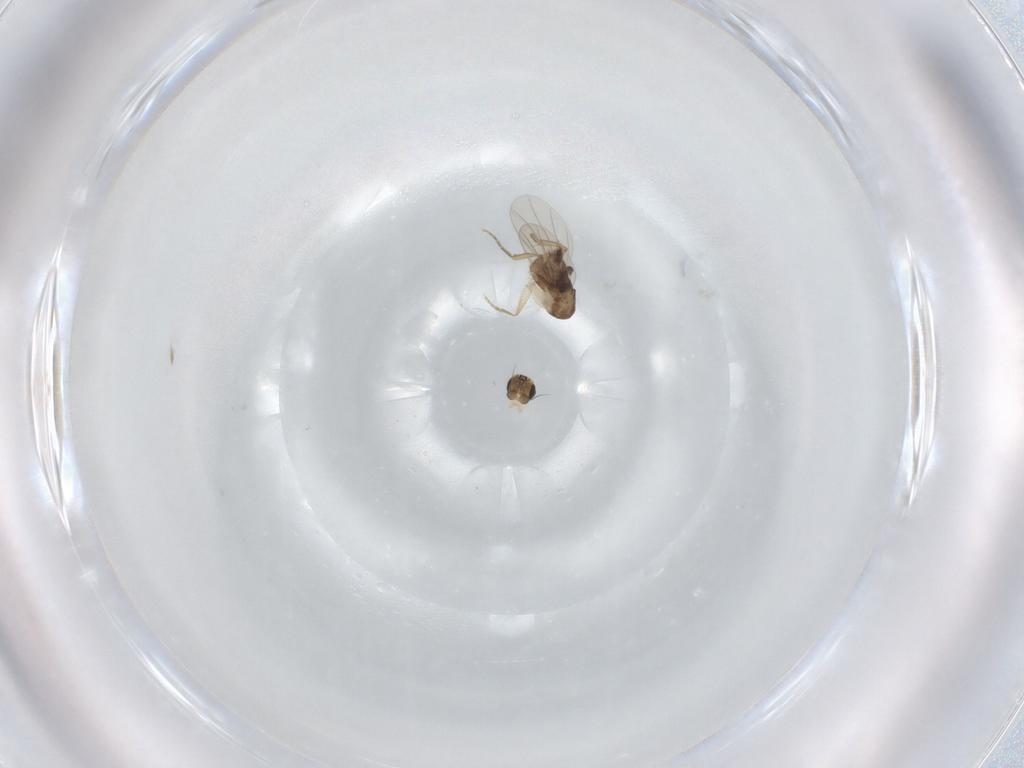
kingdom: Animalia
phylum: Arthropoda
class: Insecta
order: Diptera
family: Phoridae
